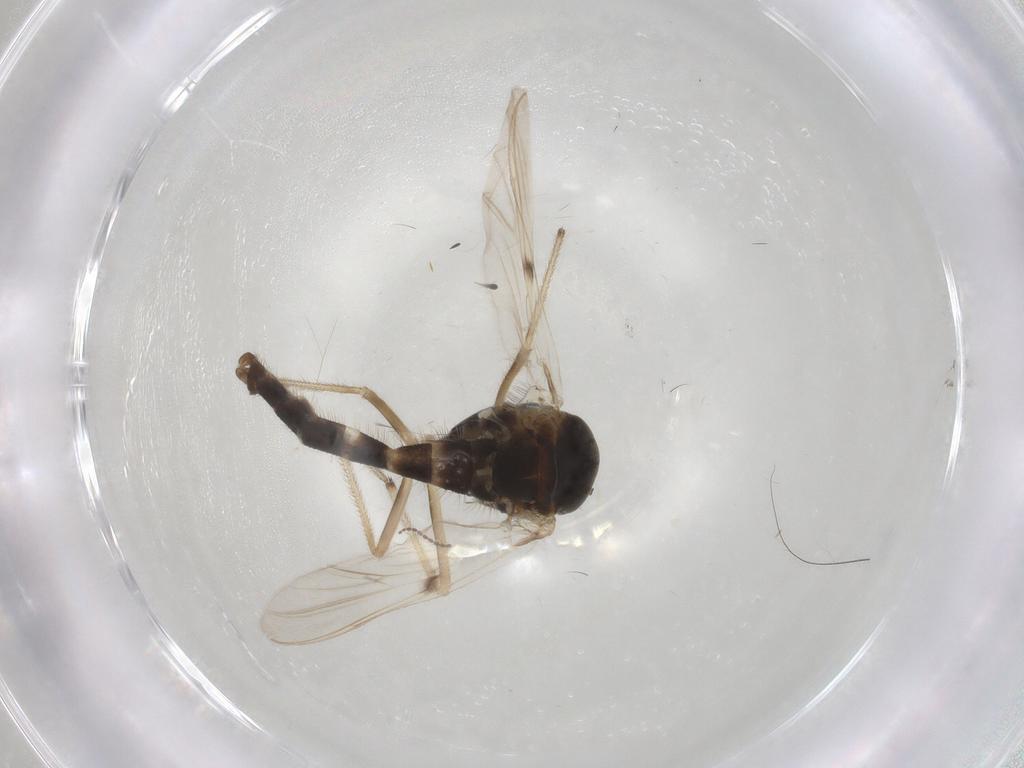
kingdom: Animalia
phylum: Arthropoda
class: Insecta
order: Diptera
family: Chironomidae
